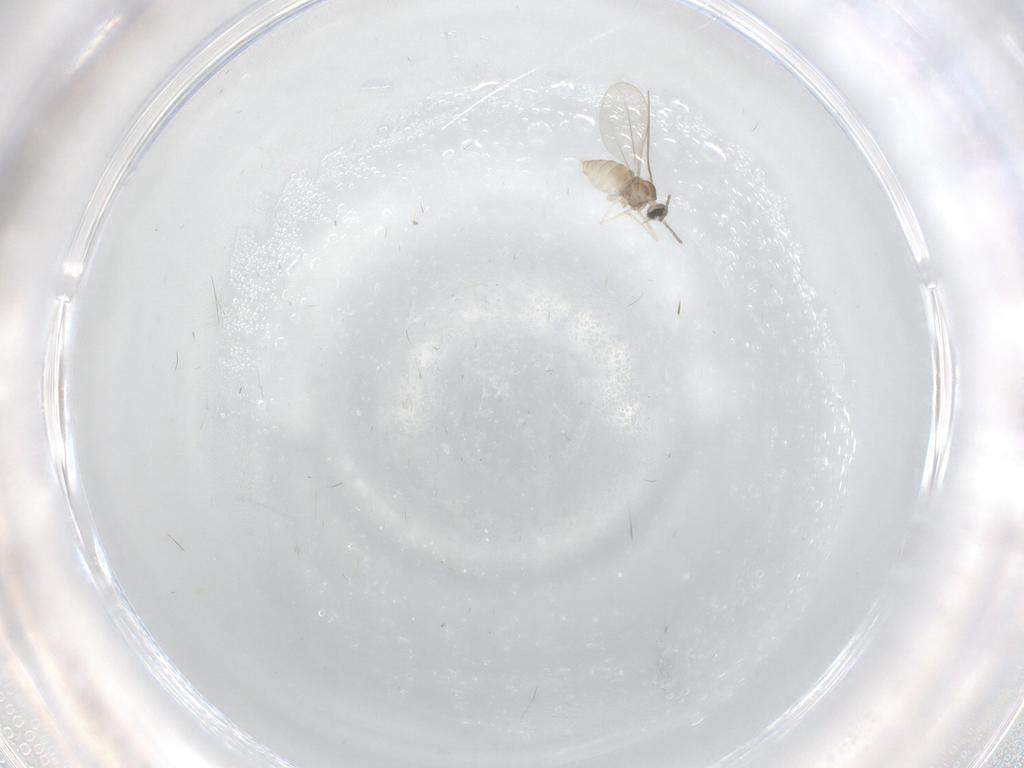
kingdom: Animalia
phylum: Arthropoda
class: Insecta
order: Diptera
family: Cecidomyiidae
